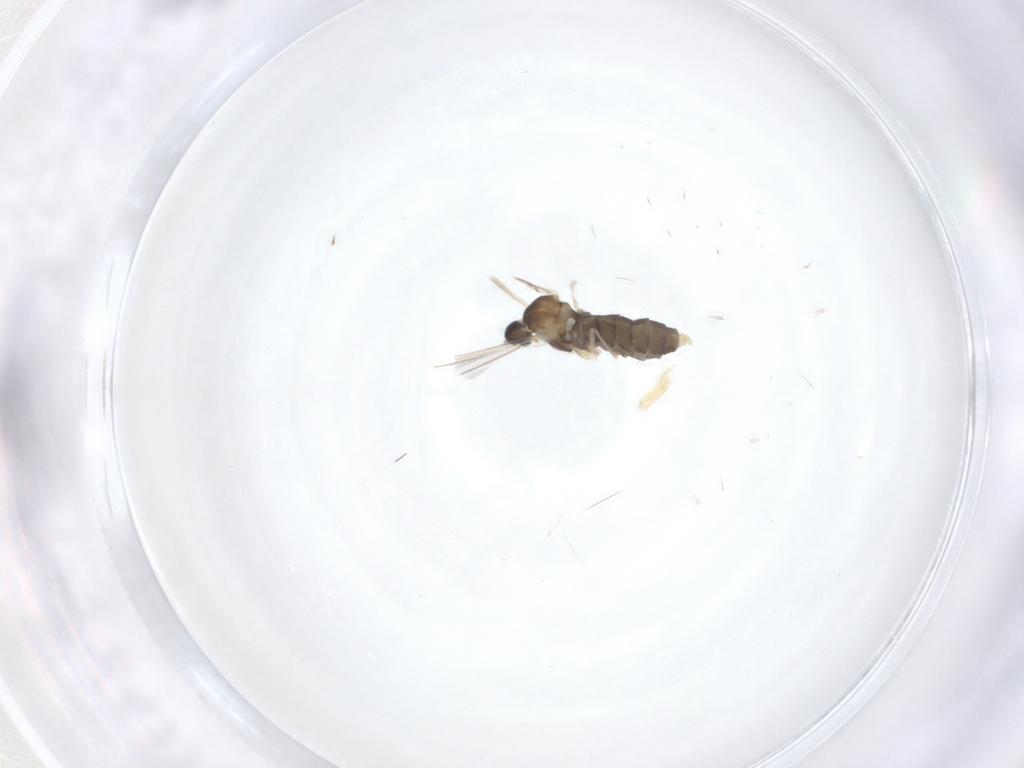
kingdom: Animalia
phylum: Arthropoda
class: Insecta
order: Diptera
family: Cecidomyiidae
